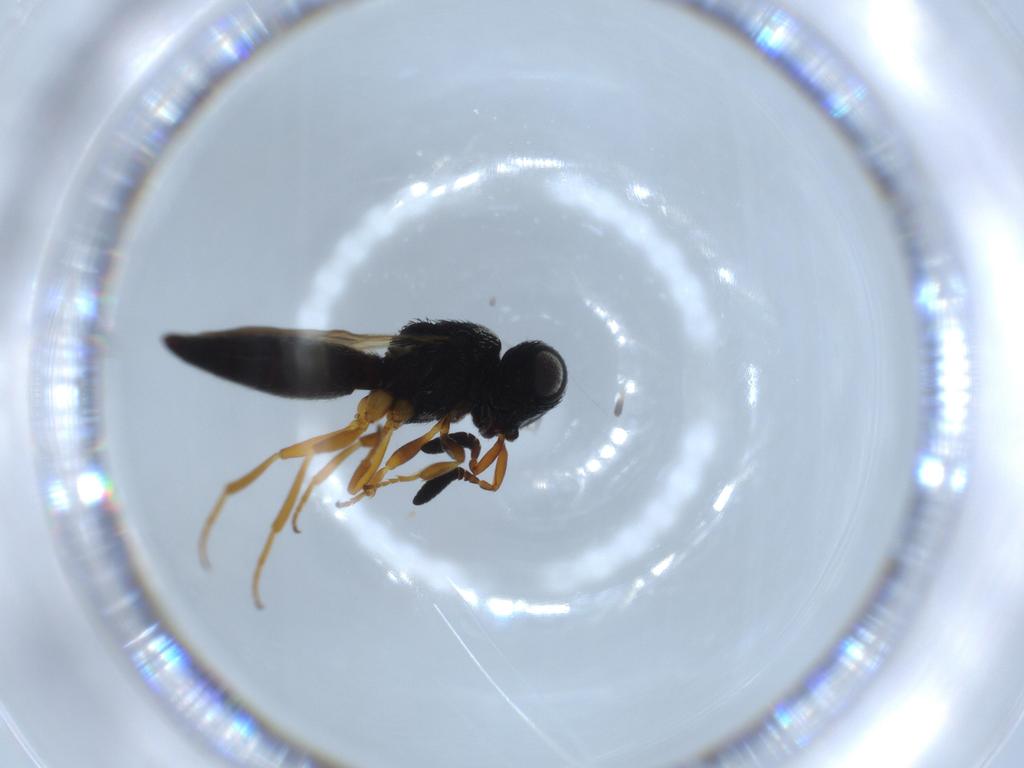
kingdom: Animalia
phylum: Arthropoda
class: Insecta
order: Hymenoptera
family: Scelionidae
